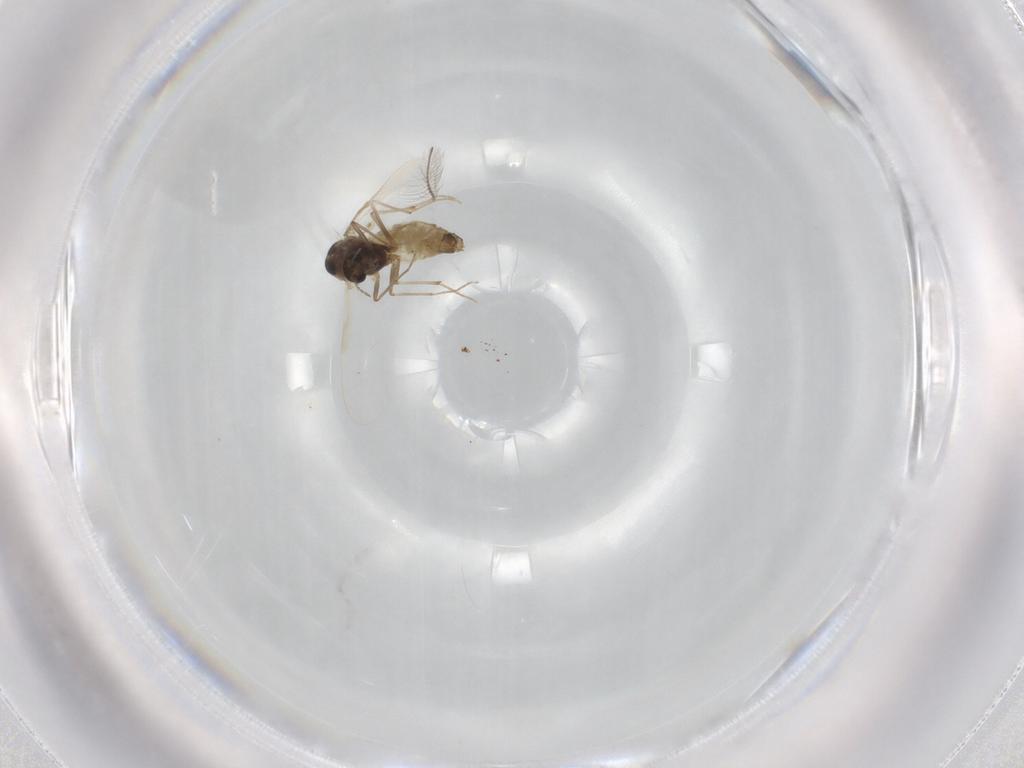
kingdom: Animalia
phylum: Arthropoda
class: Insecta
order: Diptera
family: Chironomidae
